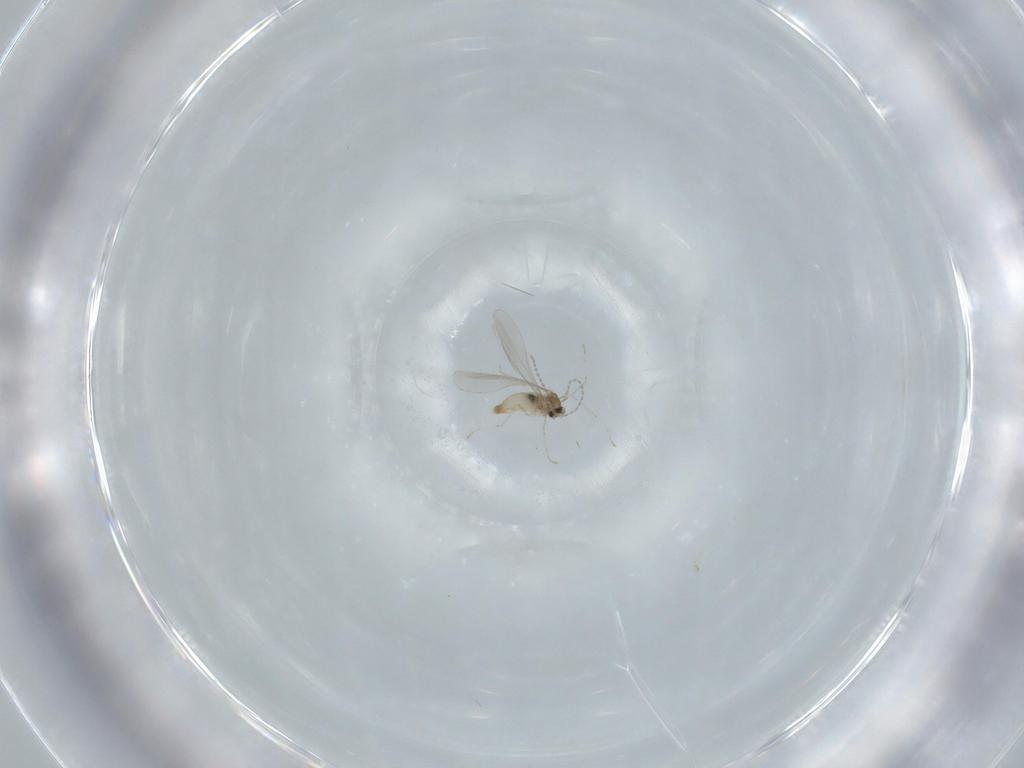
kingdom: Animalia
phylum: Arthropoda
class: Insecta
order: Diptera
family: Cecidomyiidae
